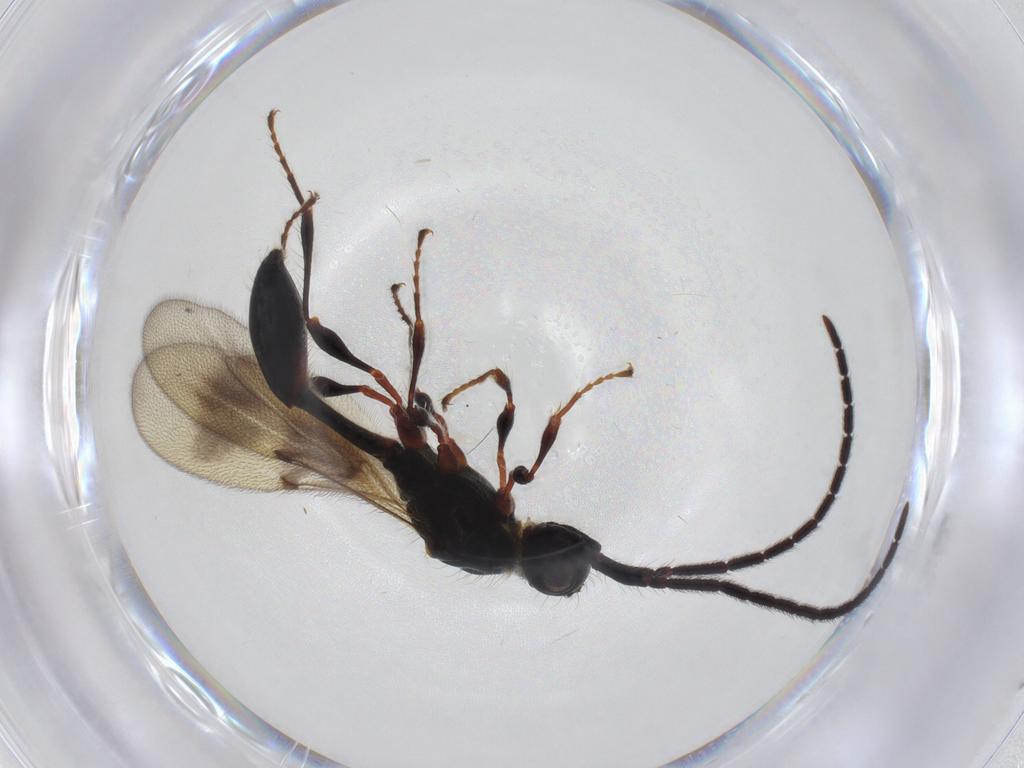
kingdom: Animalia
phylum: Arthropoda
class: Insecta
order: Hymenoptera
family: Diapriidae
